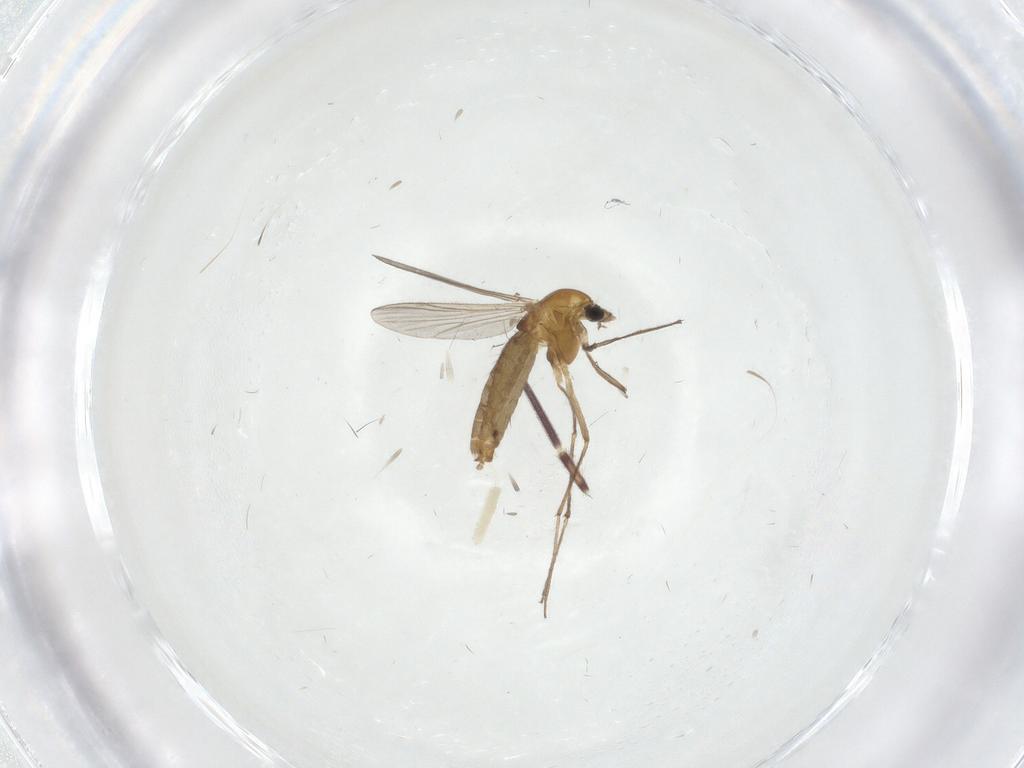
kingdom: Animalia
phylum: Arthropoda
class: Insecta
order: Diptera
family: Chironomidae
